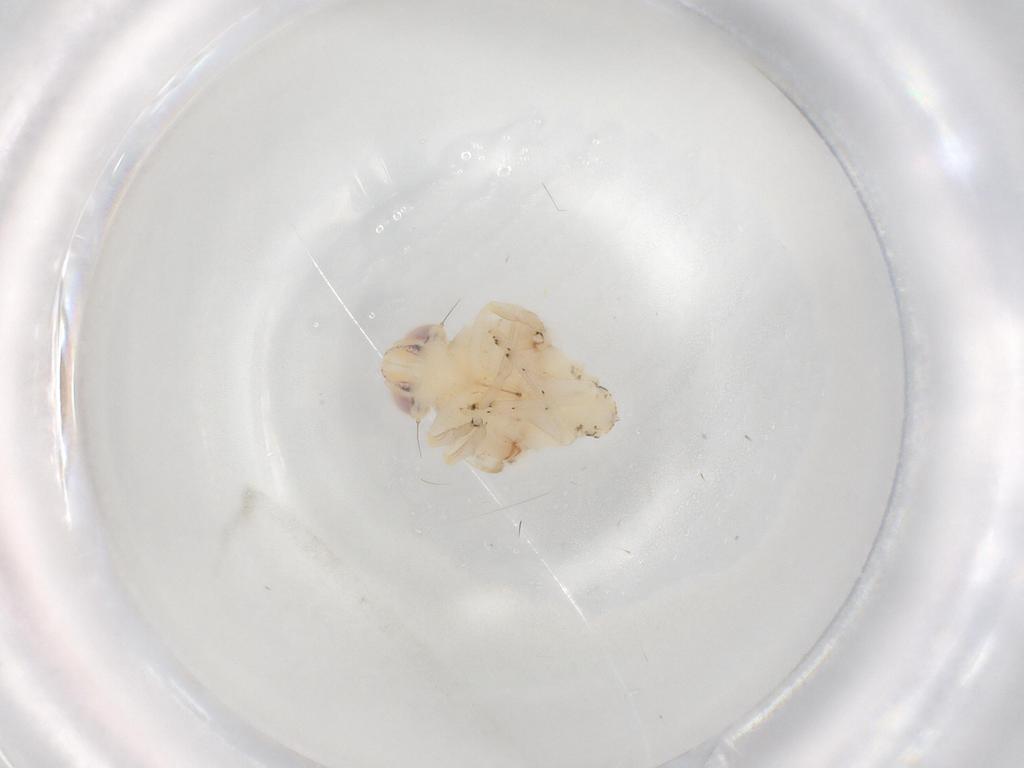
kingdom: Animalia
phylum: Arthropoda
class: Insecta
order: Hemiptera
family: Nogodinidae
